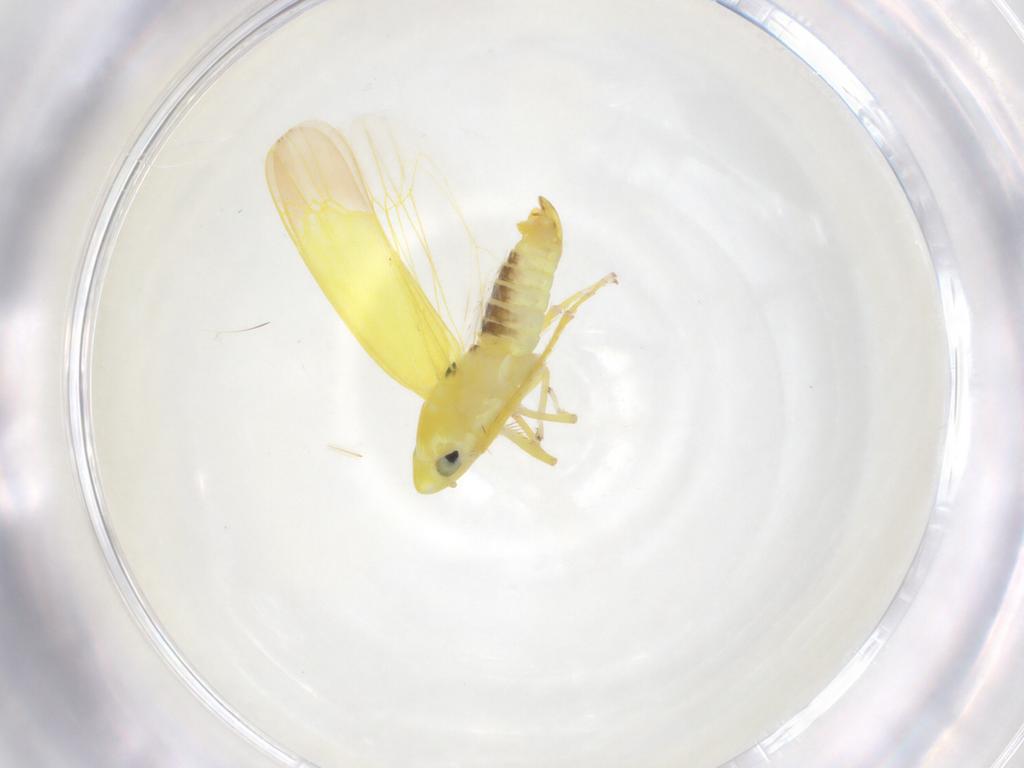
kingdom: Animalia
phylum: Arthropoda
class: Insecta
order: Hemiptera
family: Cicadellidae
